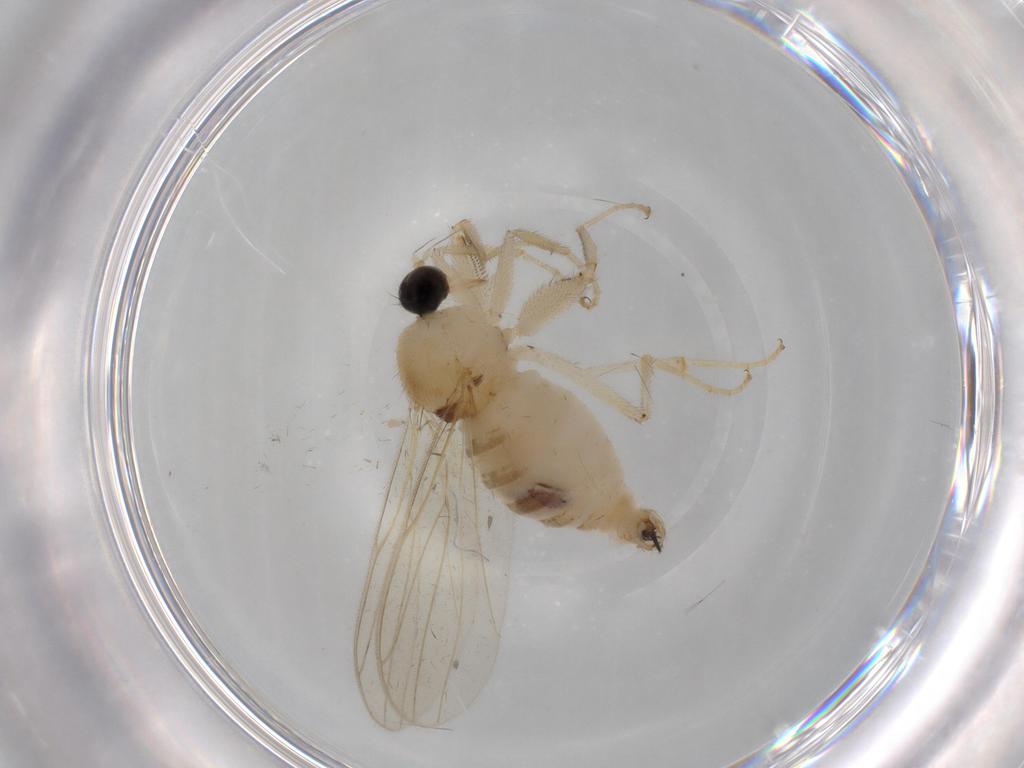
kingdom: Animalia
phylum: Arthropoda
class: Insecta
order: Diptera
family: Hybotidae
